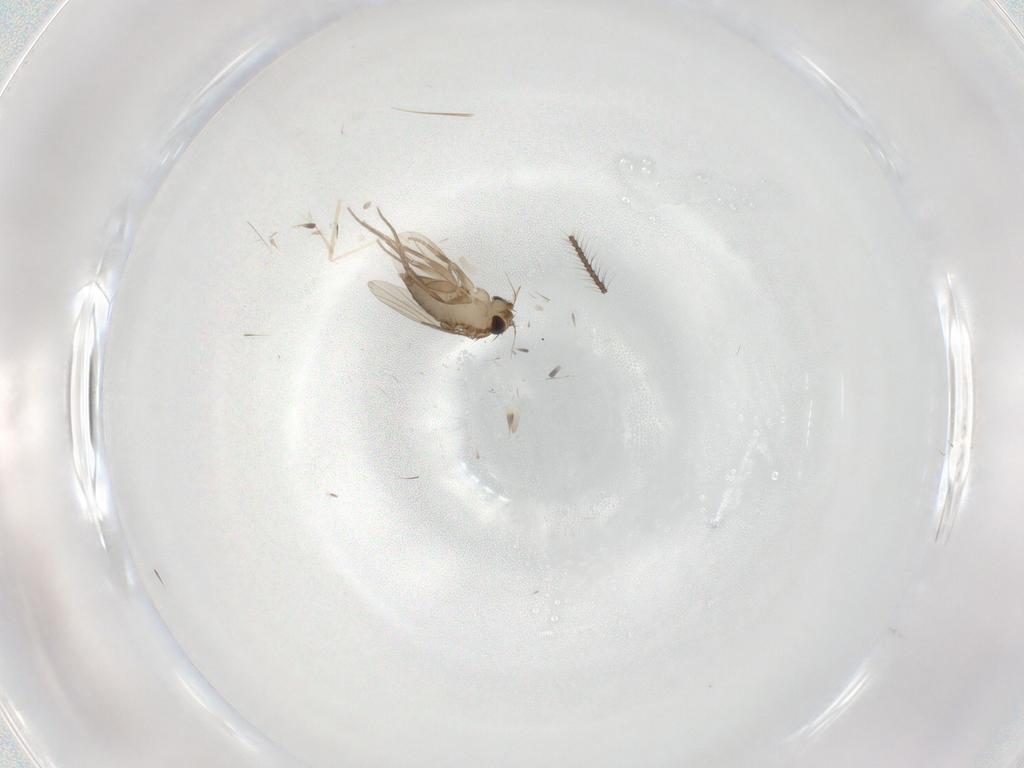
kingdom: Animalia
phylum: Arthropoda
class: Insecta
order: Diptera
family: Cecidomyiidae
